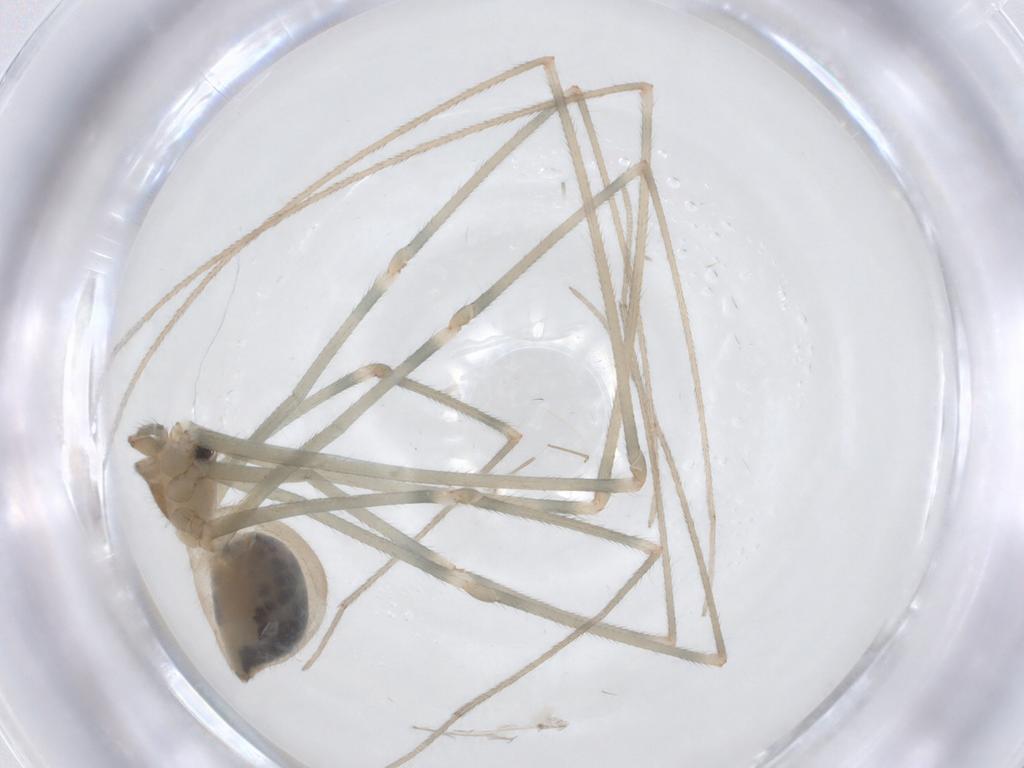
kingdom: Animalia
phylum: Arthropoda
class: Arachnida
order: Araneae
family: Pholcidae
